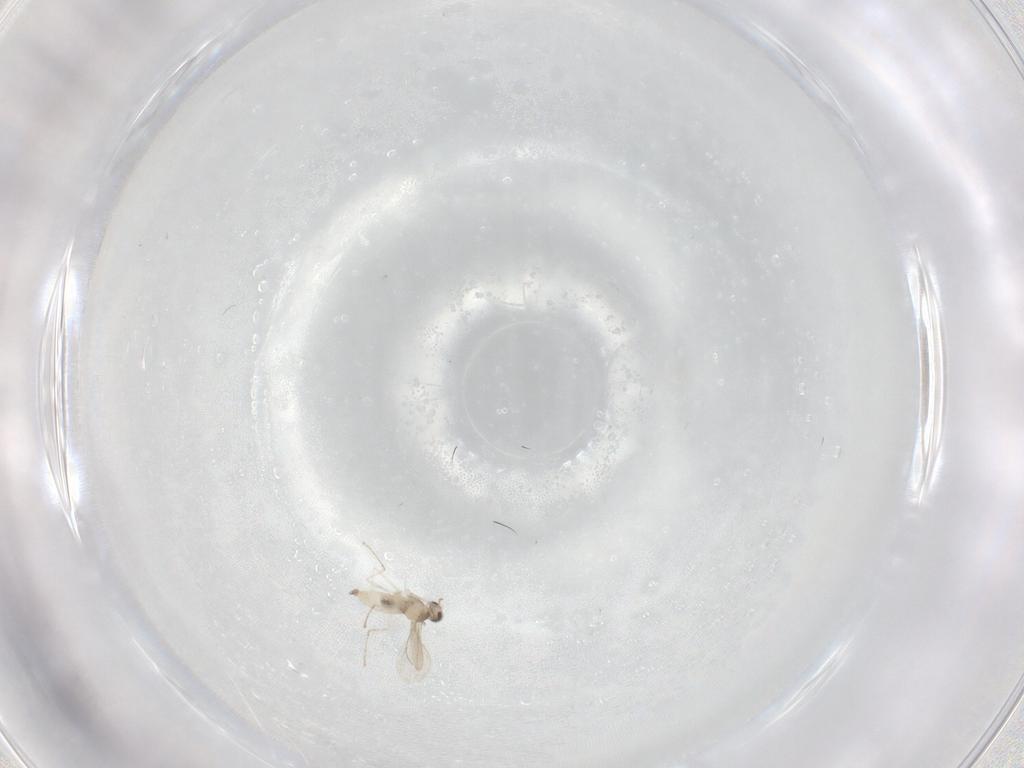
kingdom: Animalia
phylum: Arthropoda
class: Insecta
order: Diptera
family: Cecidomyiidae
